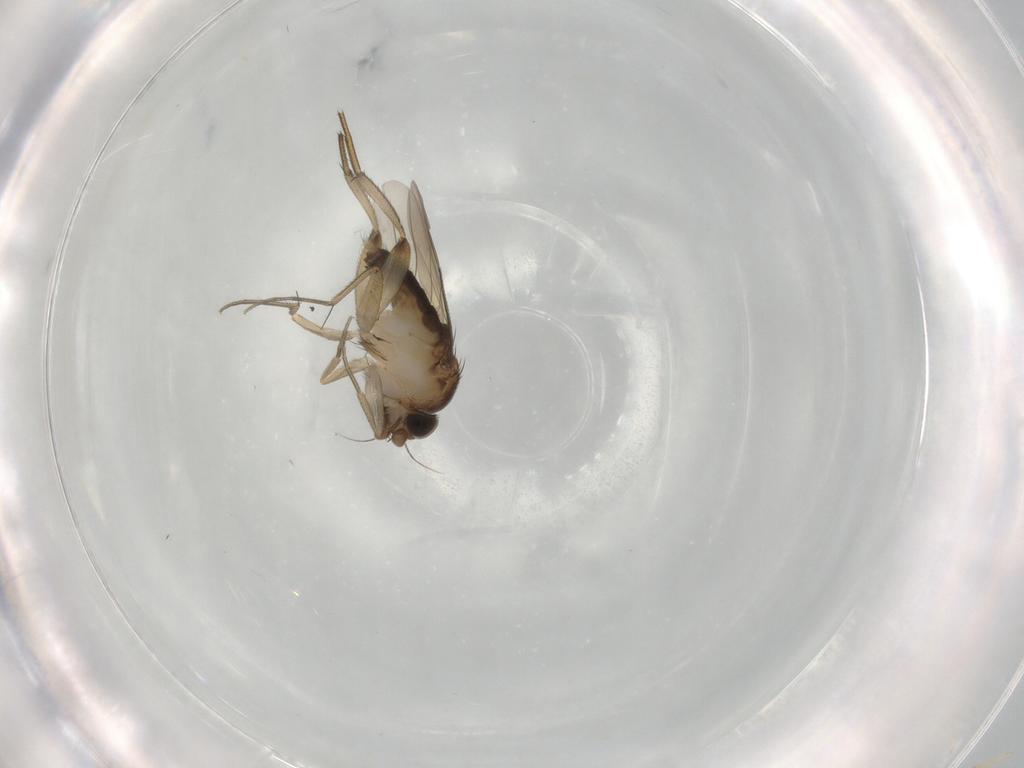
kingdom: Animalia
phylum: Arthropoda
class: Insecta
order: Diptera
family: Phoridae
